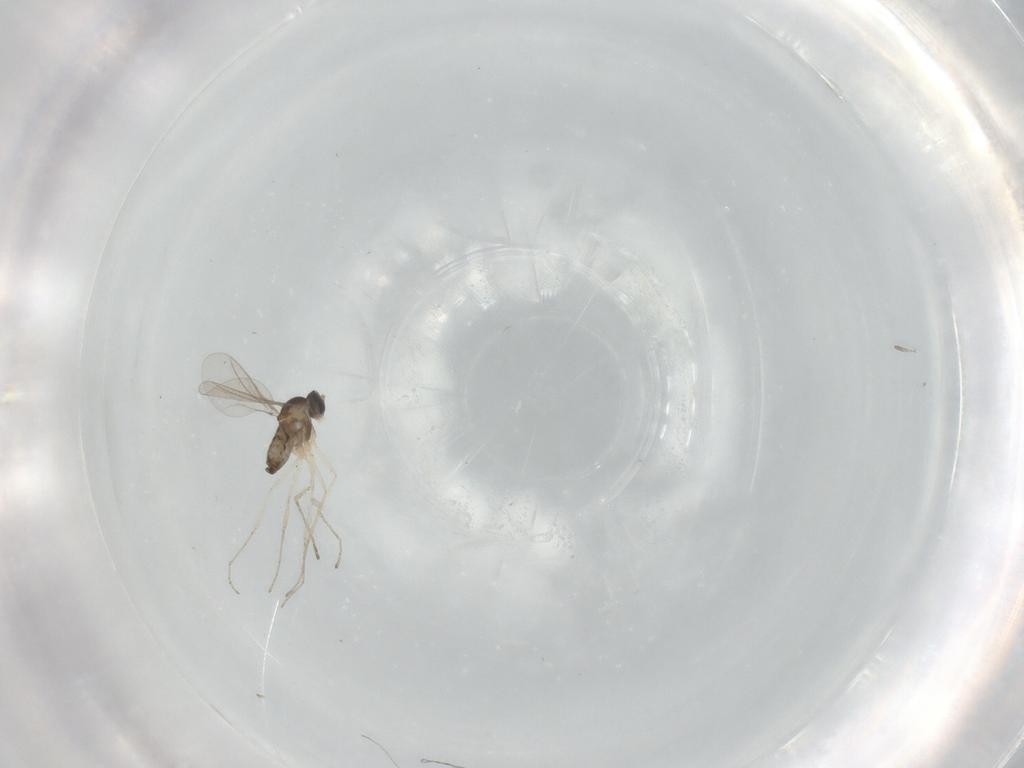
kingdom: Animalia
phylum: Arthropoda
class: Insecta
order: Diptera
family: Cecidomyiidae
